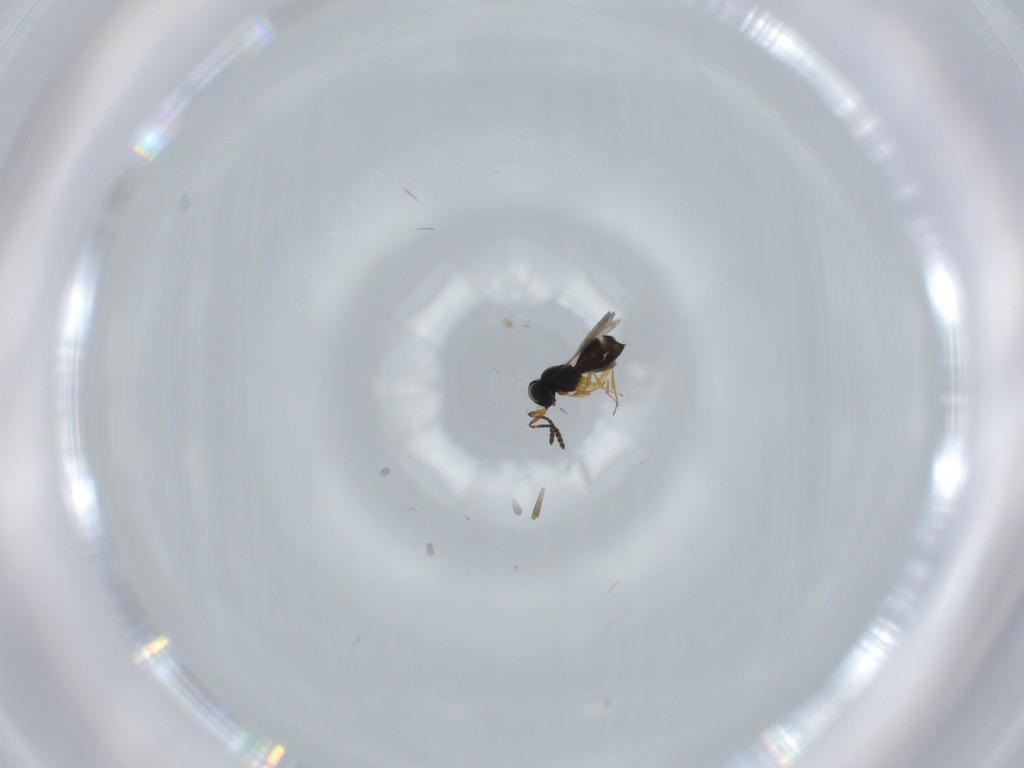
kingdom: Animalia
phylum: Arthropoda
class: Insecta
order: Hymenoptera
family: Scelionidae
